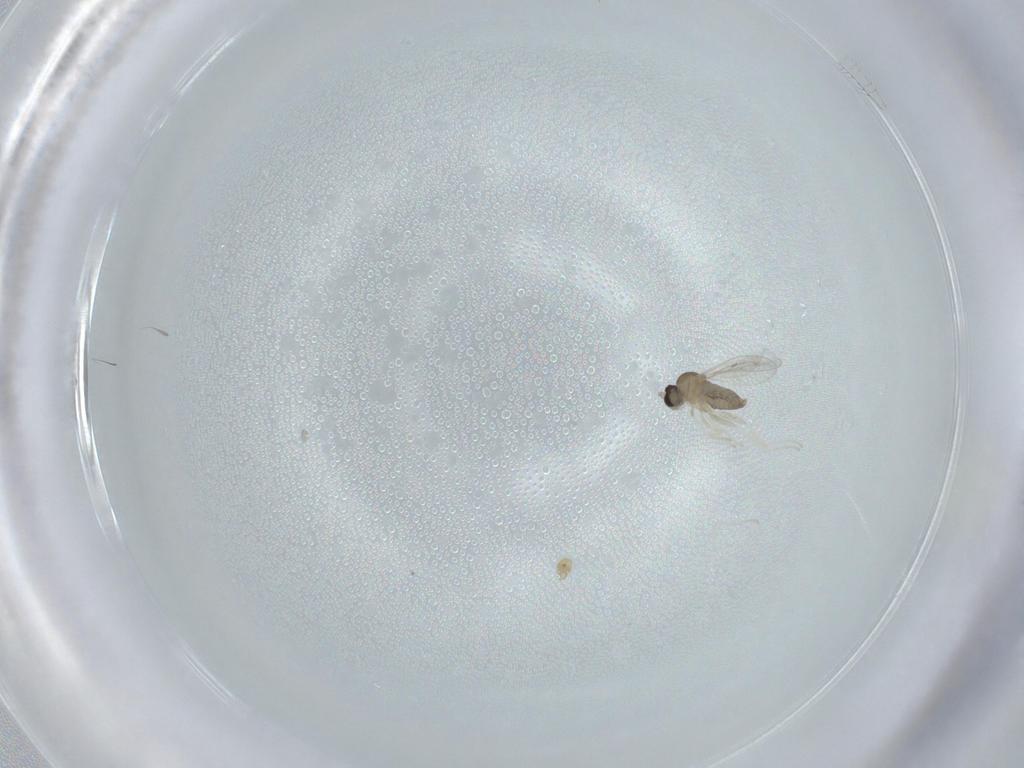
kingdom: Animalia
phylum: Arthropoda
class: Insecta
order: Diptera
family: Cecidomyiidae
